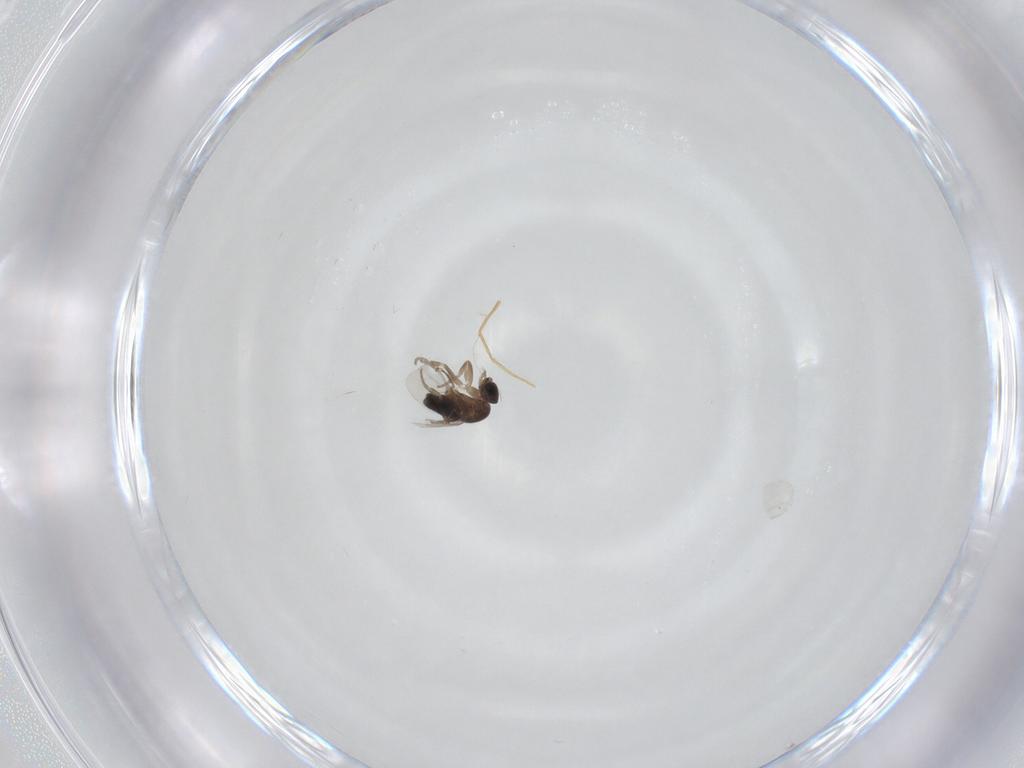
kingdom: Animalia
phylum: Arthropoda
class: Insecta
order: Diptera
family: Phoridae
